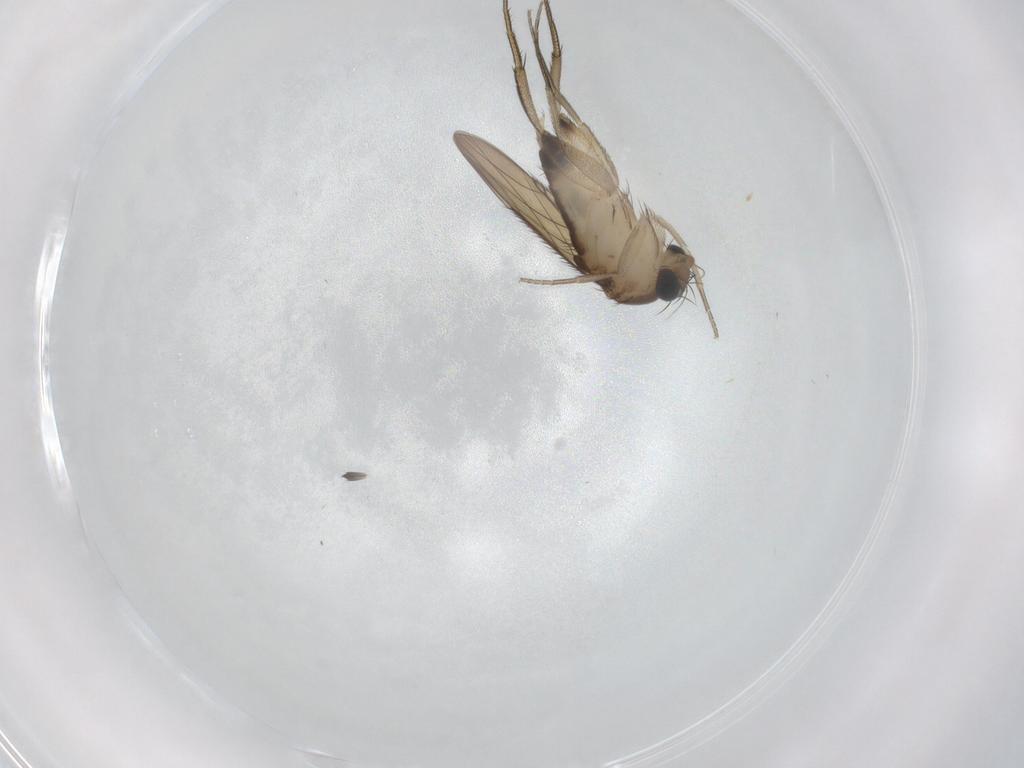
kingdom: Animalia
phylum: Arthropoda
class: Insecta
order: Diptera
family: Phoridae
